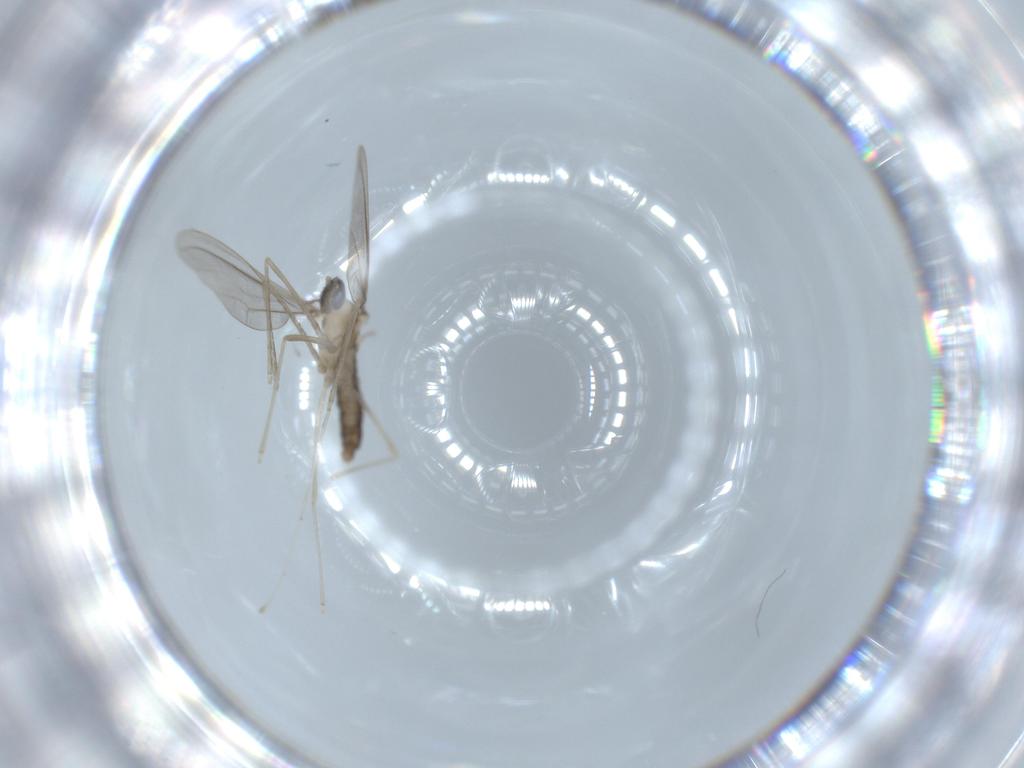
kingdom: Animalia
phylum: Arthropoda
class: Insecta
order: Diptera
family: Cecidomyiidae
